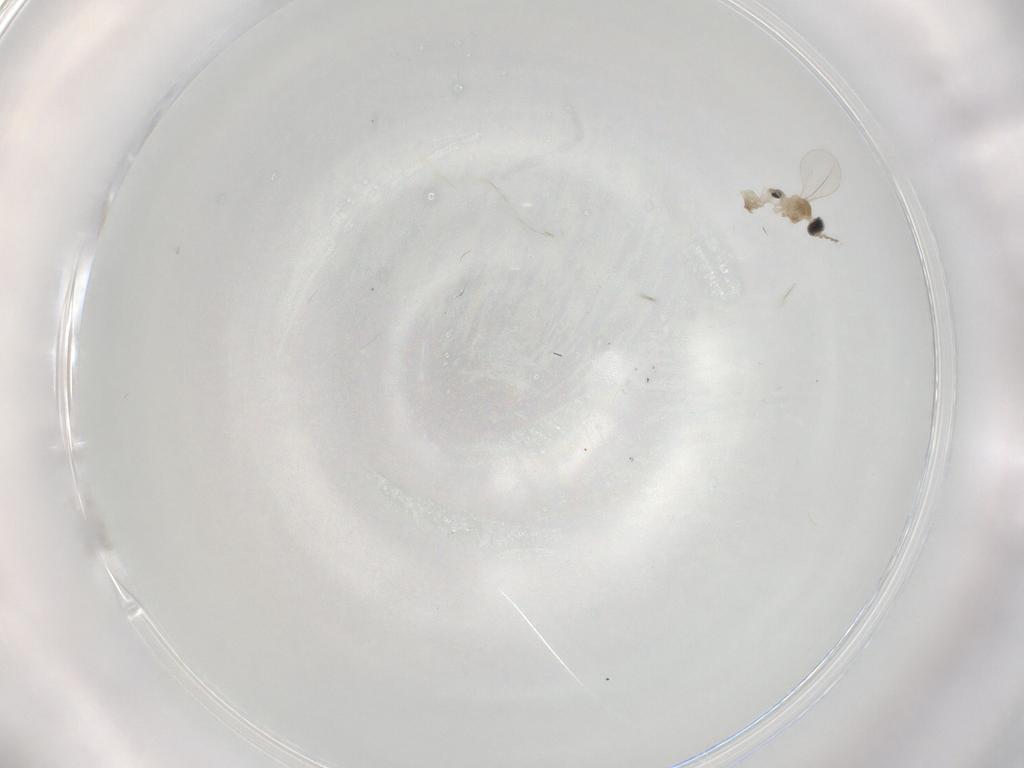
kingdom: Animalia
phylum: Arthropoda
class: Insecta
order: Diptera
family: Cecidomyiidae
